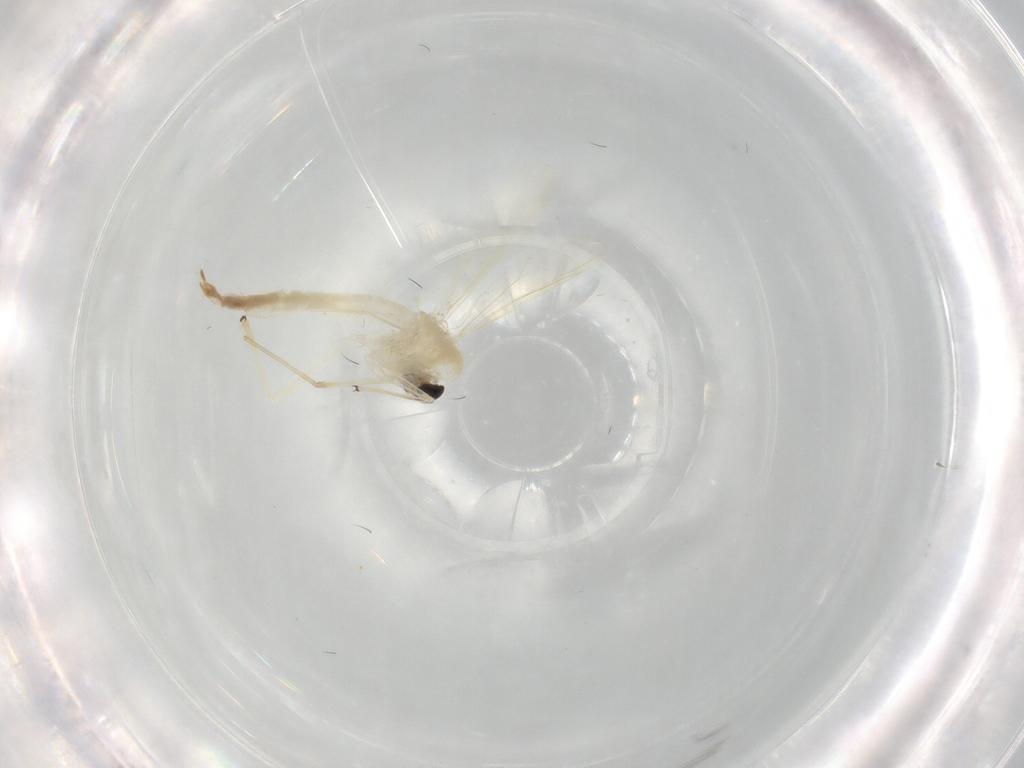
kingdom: Animalia
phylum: Arthropoda
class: Insecta
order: Diptera
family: Chironomidae
